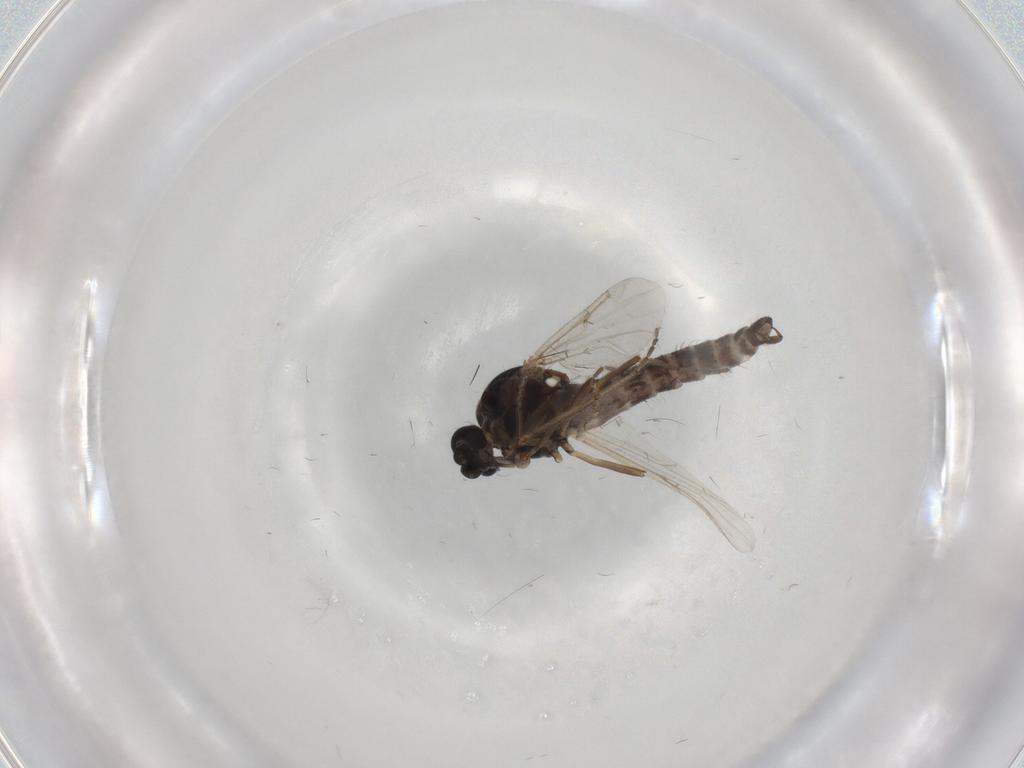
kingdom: Animalia
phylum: Arthropoda
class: Insecta
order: Diptera
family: Ceratopogonidae
